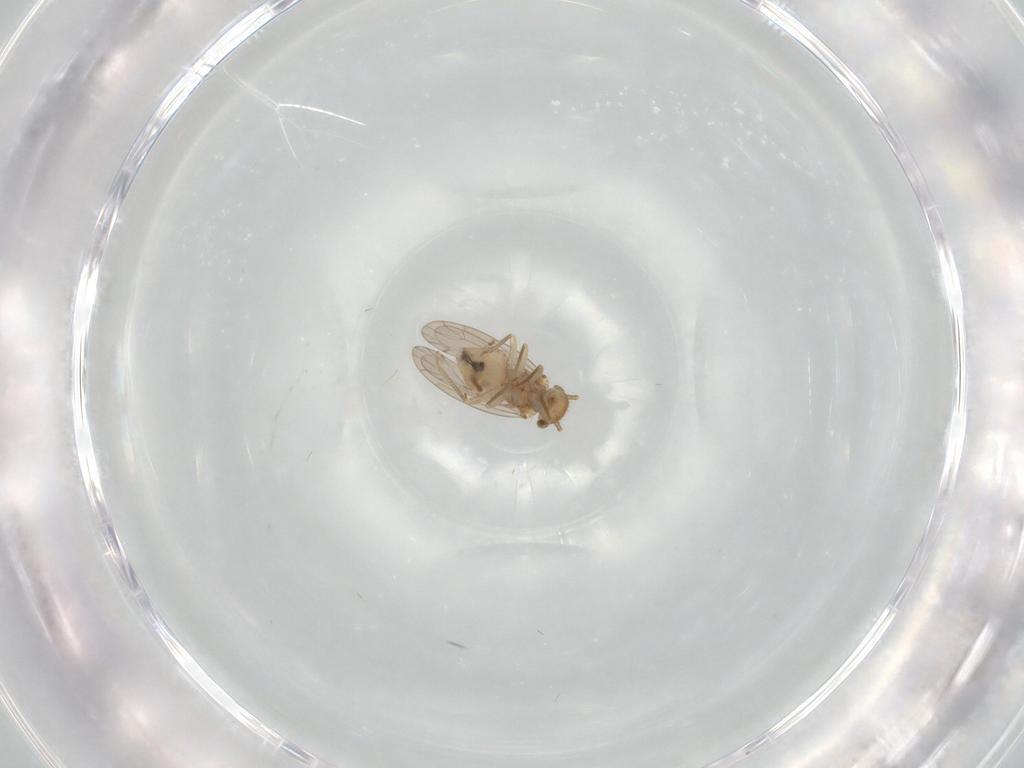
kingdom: Animalia
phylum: Arthropoda
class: Insecta
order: Psocodea
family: Ectopsocidae
